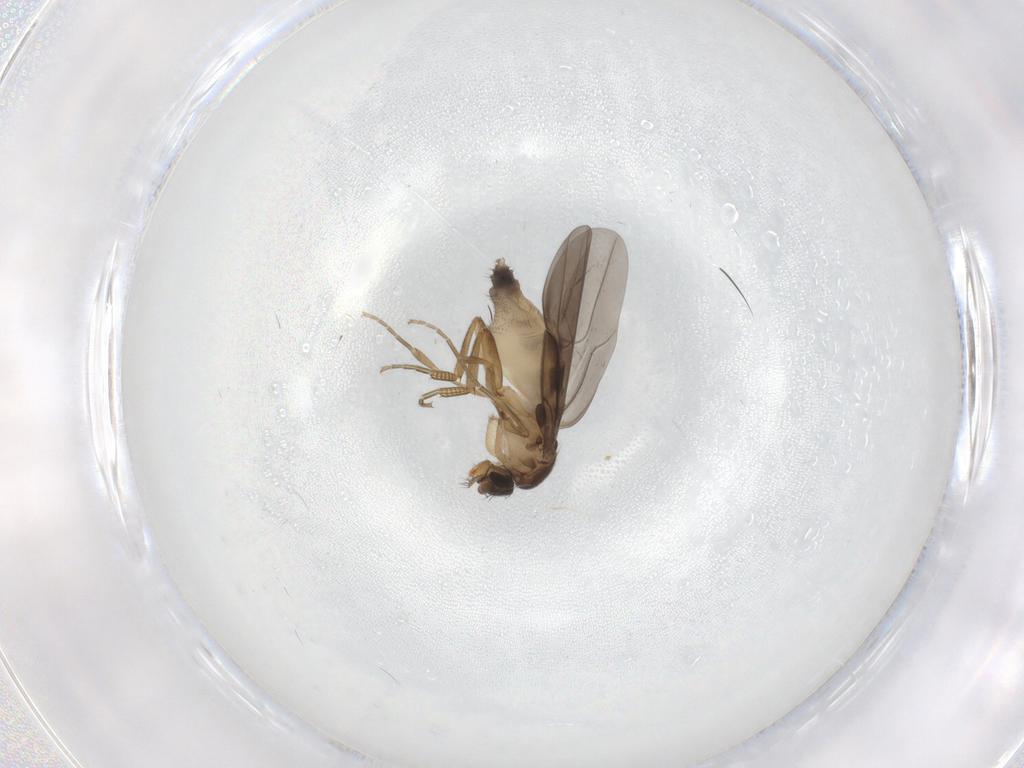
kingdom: Animalia
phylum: Arthropoda
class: Insecta
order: Diptera
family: Phoridae
